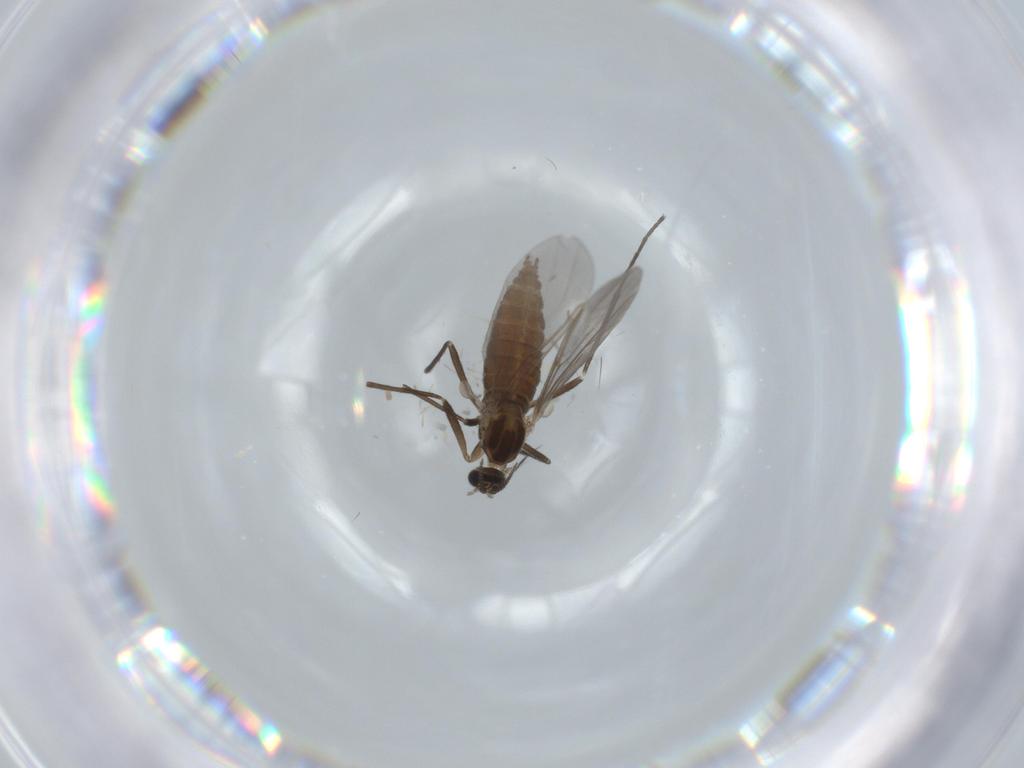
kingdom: Animalia
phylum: Arthropoda
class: Insecta
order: Diptera
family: Cecidomyiidae
